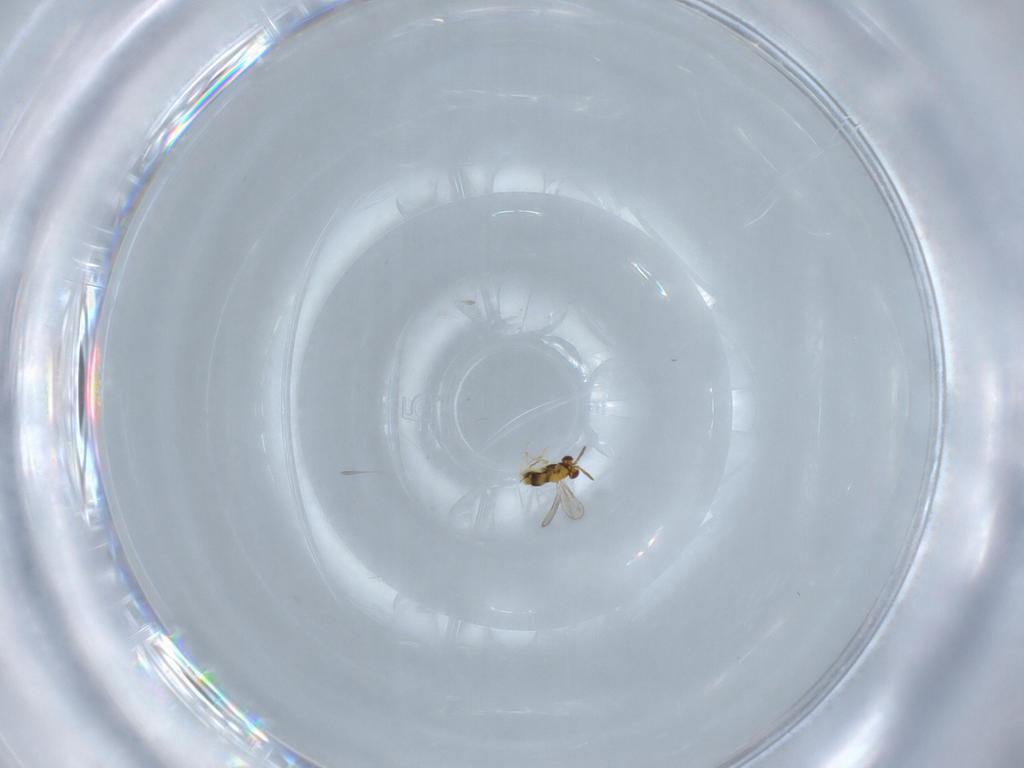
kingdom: Animalia
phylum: Arthropoda
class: Insecta
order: Hymenoptera
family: Aphelinidae
